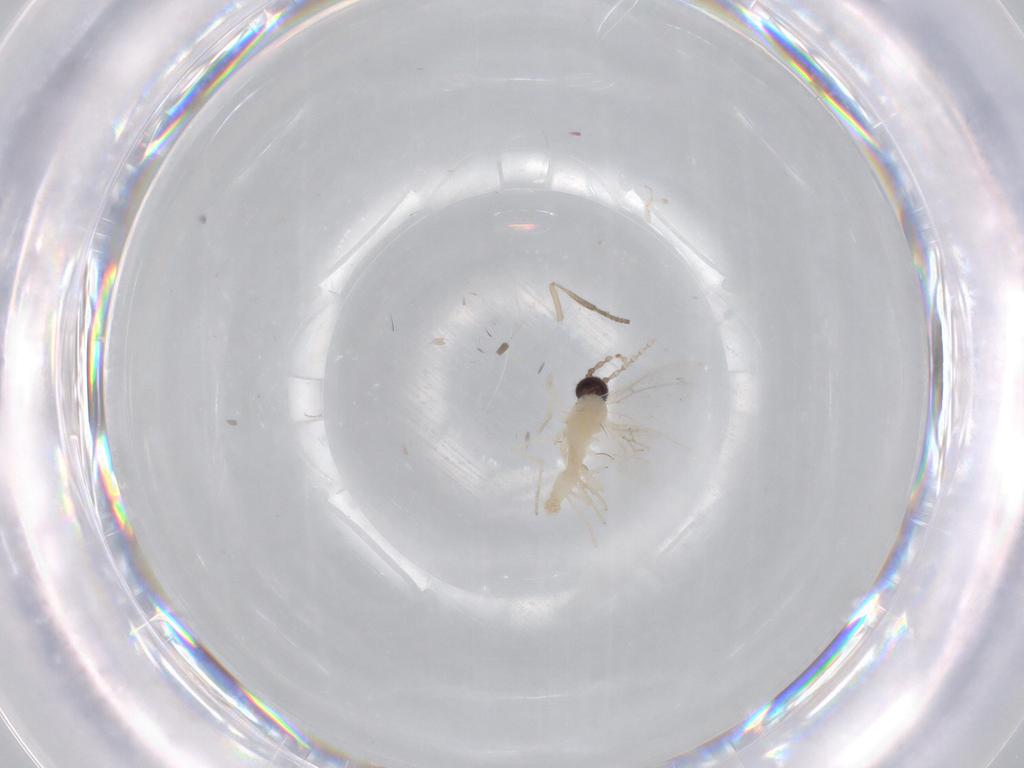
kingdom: Animalia
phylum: Arthropoda
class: Insecta
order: Diptera
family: Cecidomyiidae
